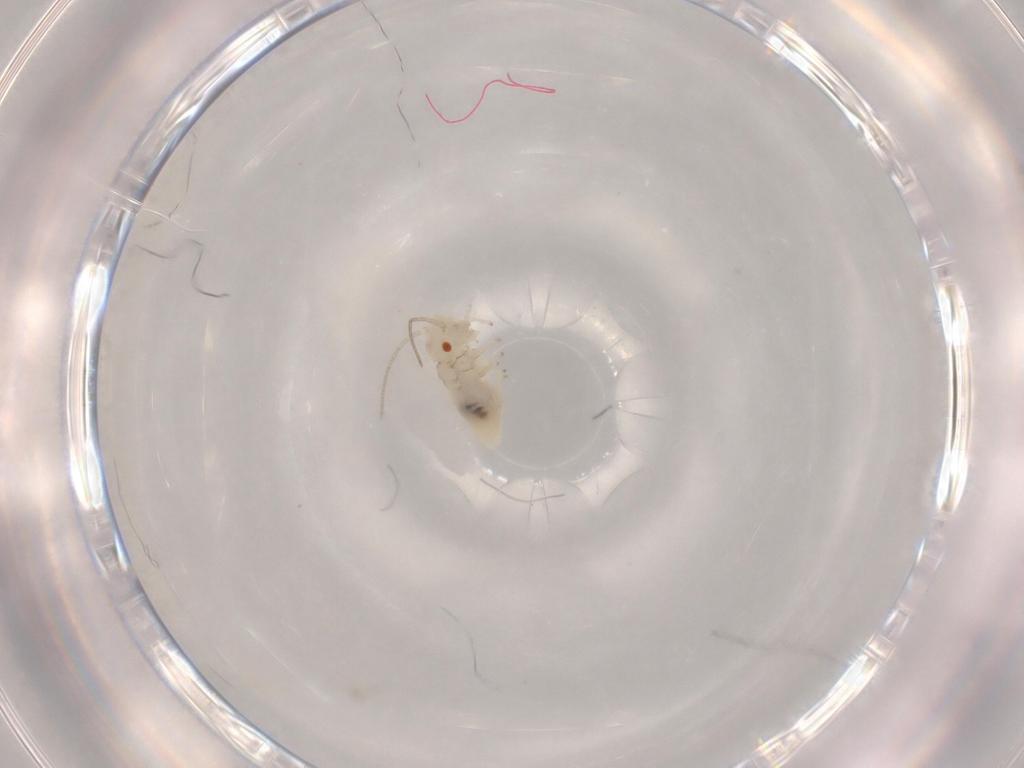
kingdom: Animalia
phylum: Arthropoda
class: Insecta
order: Psocodea
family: Caeciliusidae
